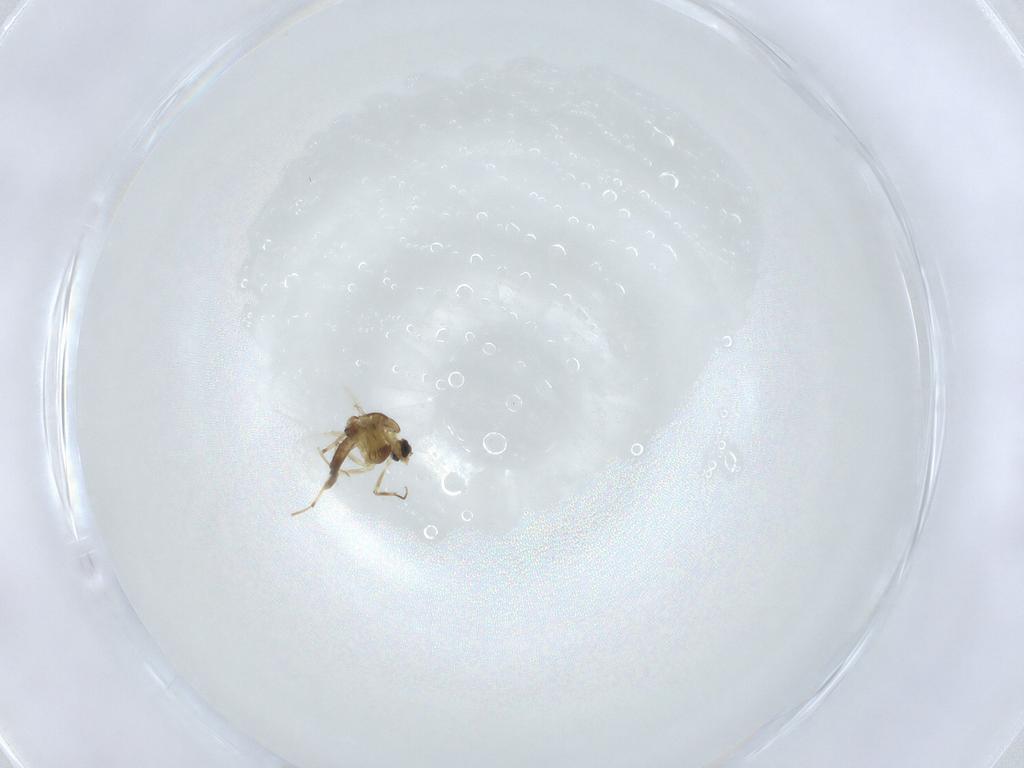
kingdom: Animalia
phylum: Arthropoda
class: Insecta
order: Diptera
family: Chironomidae
